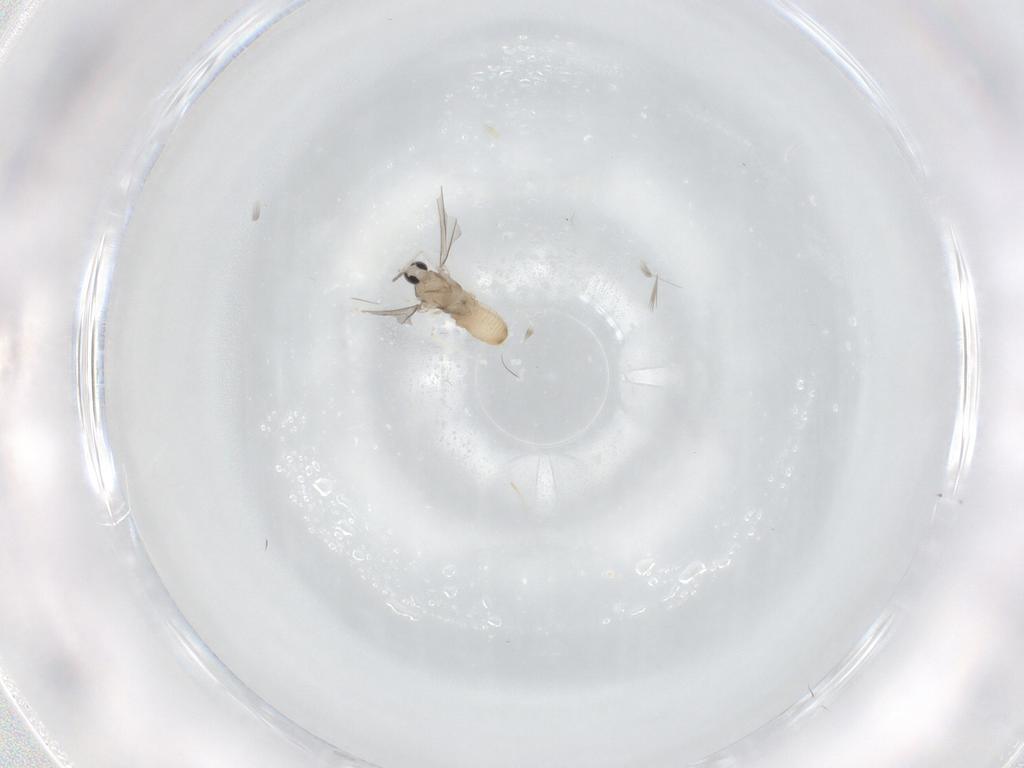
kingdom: Animalia
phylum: Arthropoda
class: Insecta
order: Diptera
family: Cecidomyiidae
